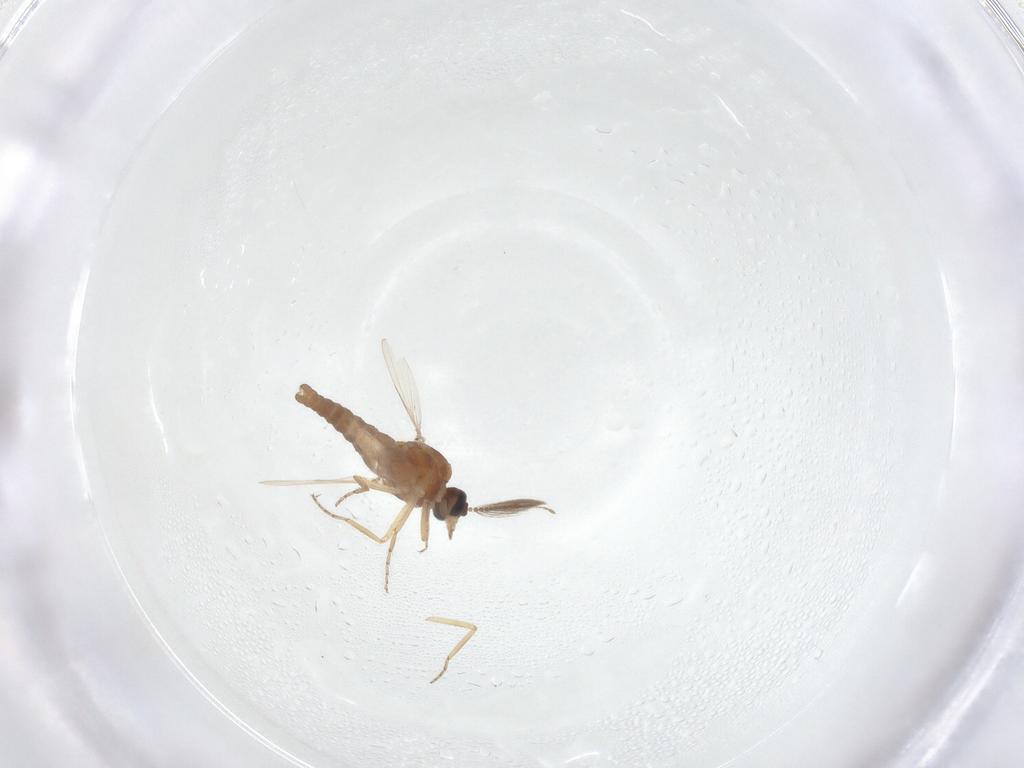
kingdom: Animalia
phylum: Arthropoda
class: Insecta
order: Diptera
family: Ceratopogonidae
